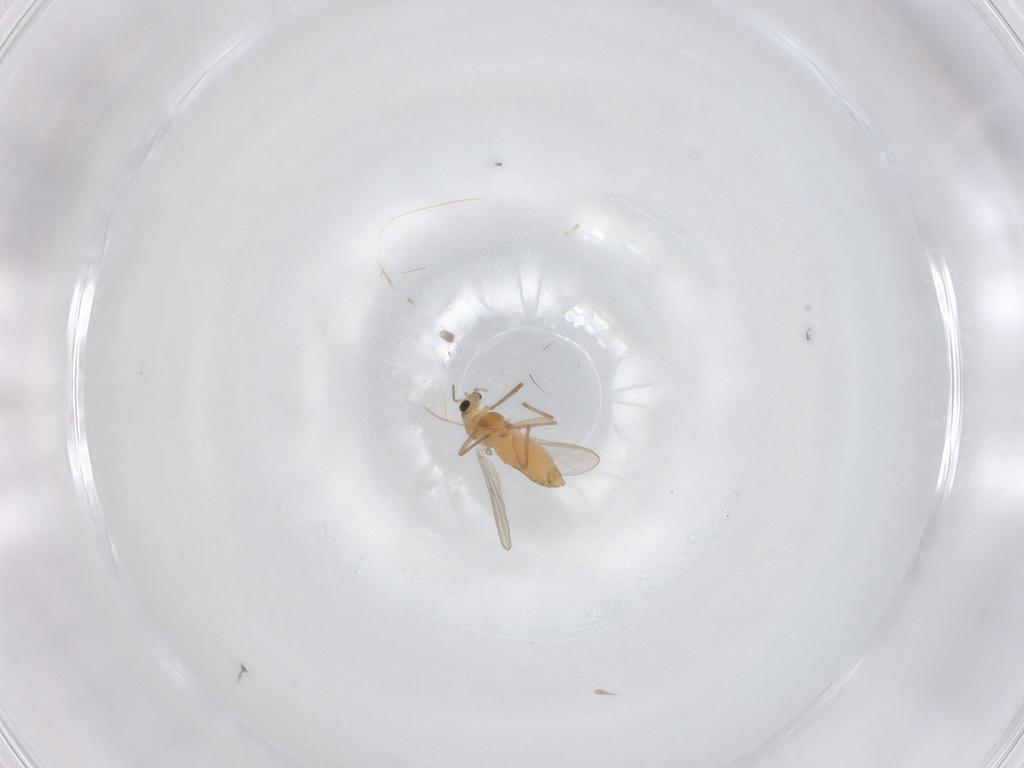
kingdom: Animalia
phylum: Arthropoda
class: Insecta
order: Diptera
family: Chironomidae
